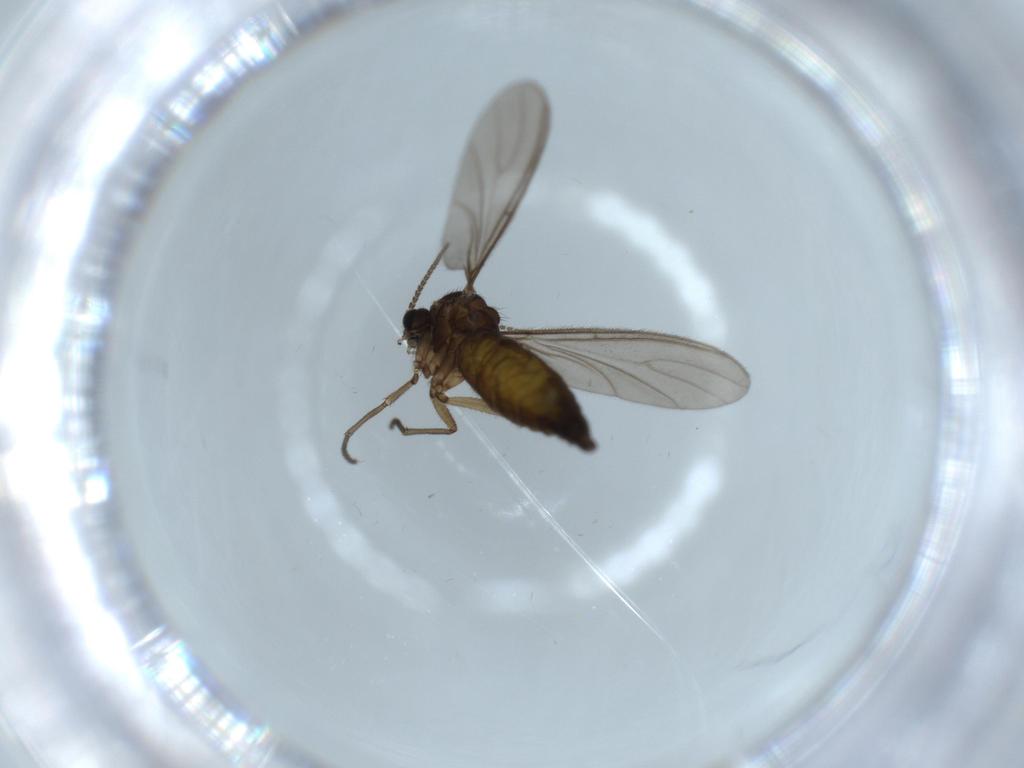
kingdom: Animalia
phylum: Arthropoda
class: Insecta
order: Diptera
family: Sciaridae
